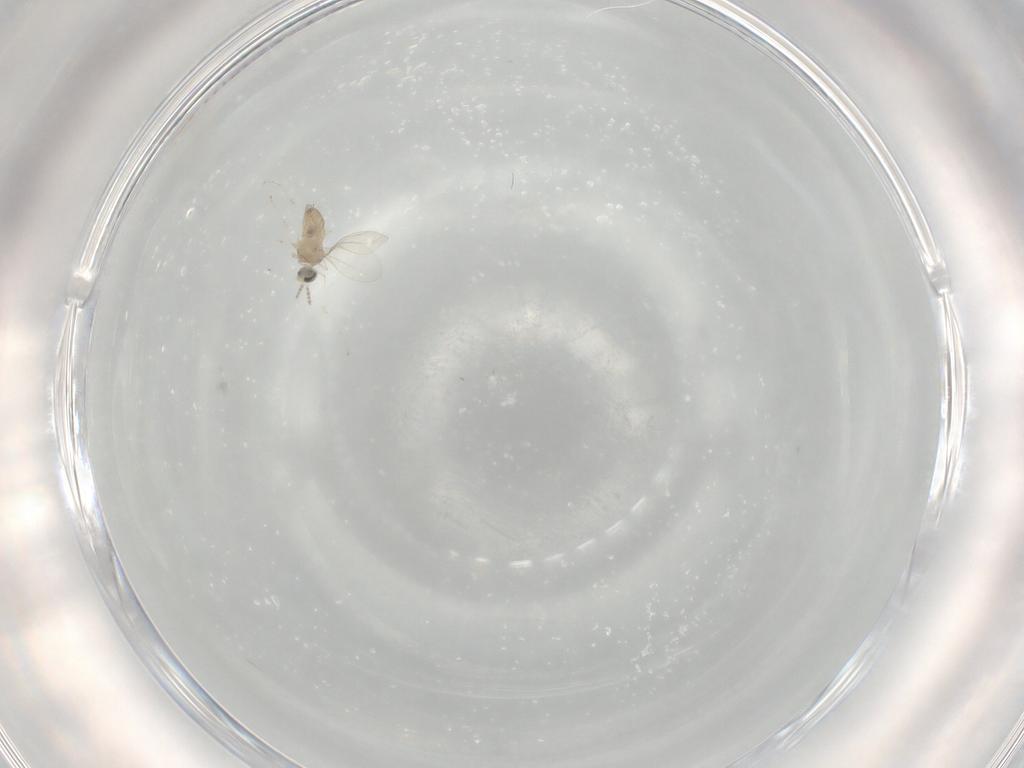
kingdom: Animalia
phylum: Arthropoda
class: Insecta
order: Diptera
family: Cecidomyiidae
